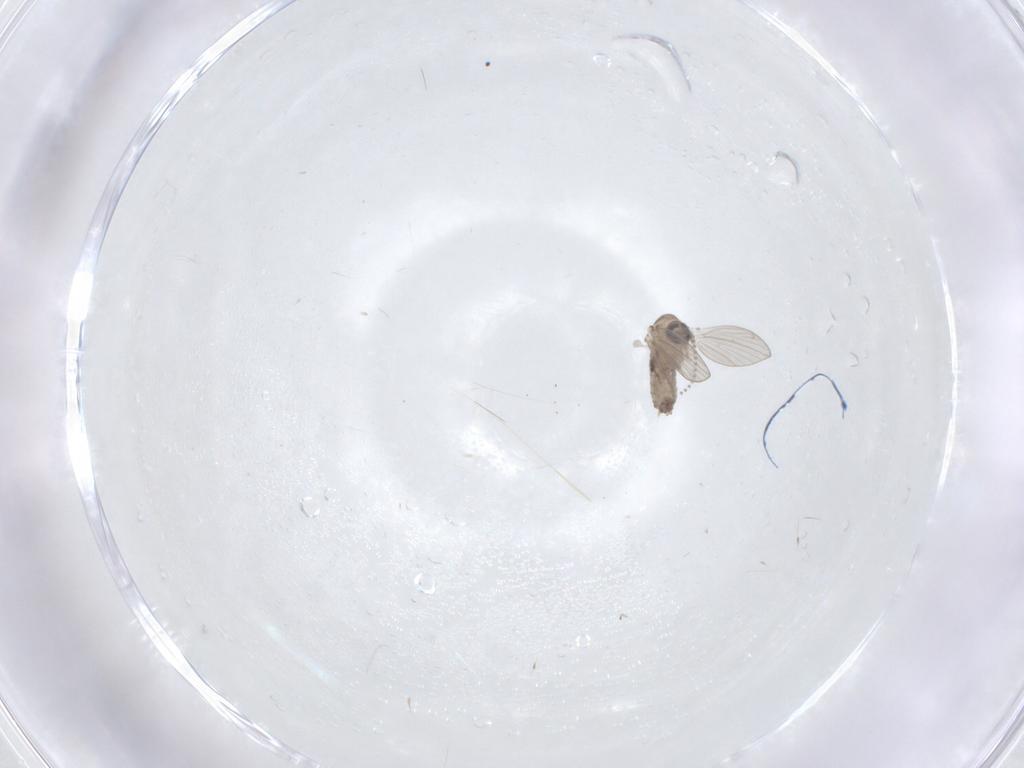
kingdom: Animalia
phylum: Arthropoda
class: Insecta
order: Diptera
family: Psychodidae
